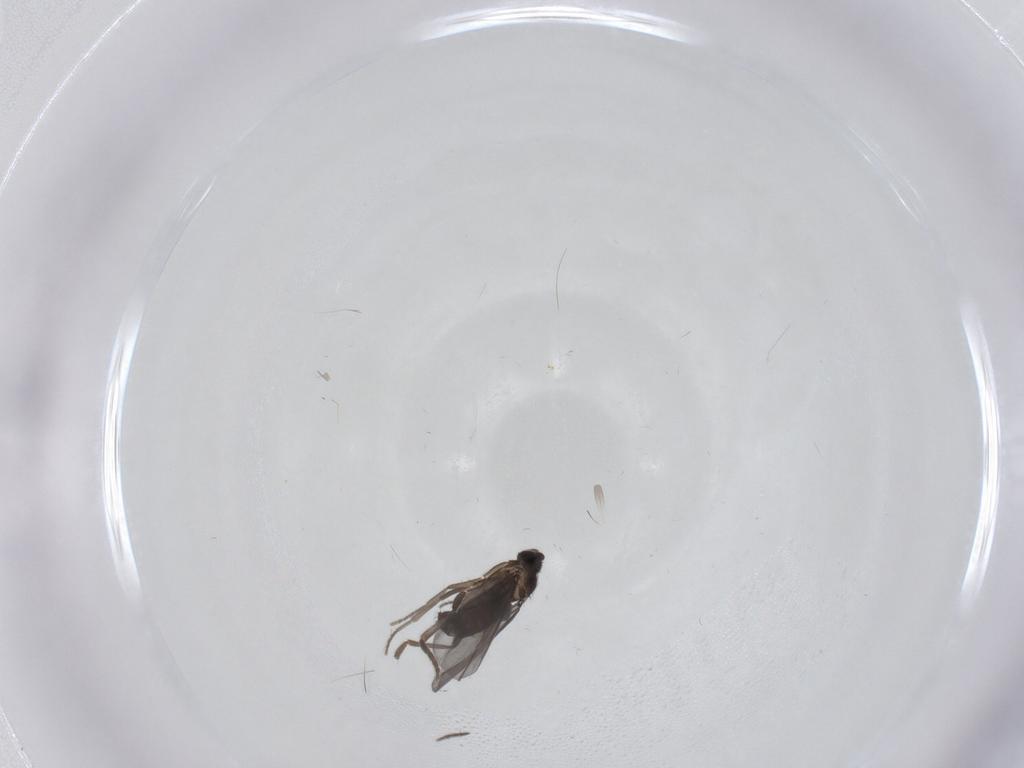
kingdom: Animalia
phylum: Arthropoda
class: Insecta
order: Diptera
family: Phoridae
